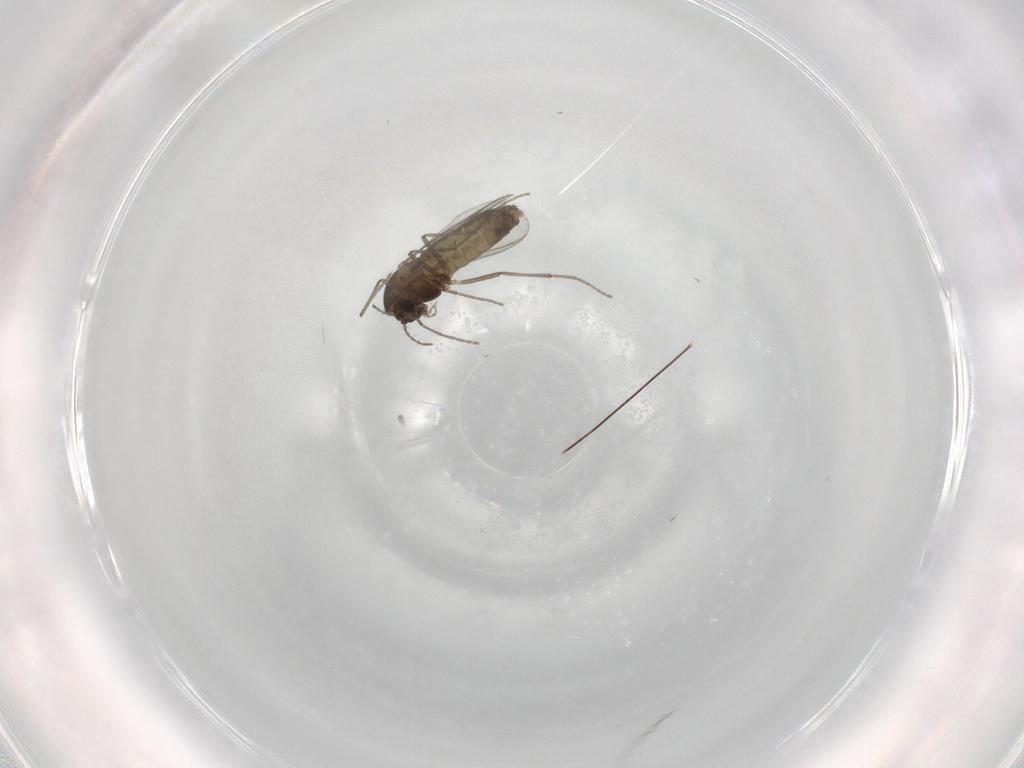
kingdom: Animalia
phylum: Arthropoda
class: Insecta
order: Diptera
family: Chironomidae
